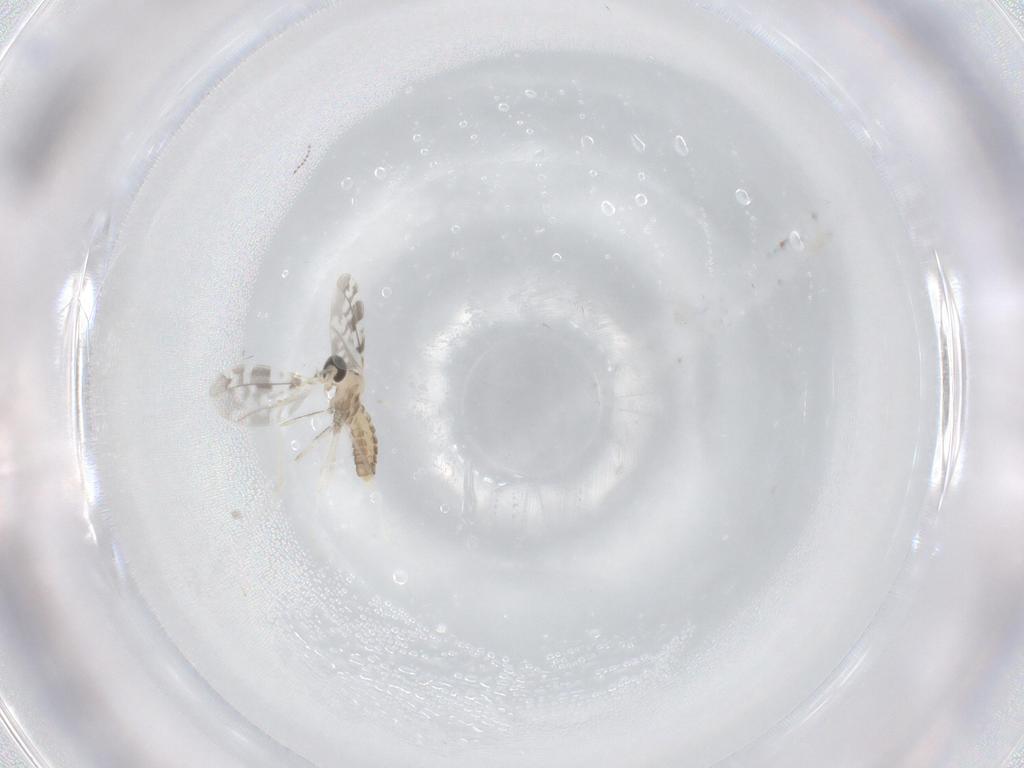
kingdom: Animalia
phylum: Arthropoda
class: Insecta
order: Diptera
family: Cecidomyiidae
